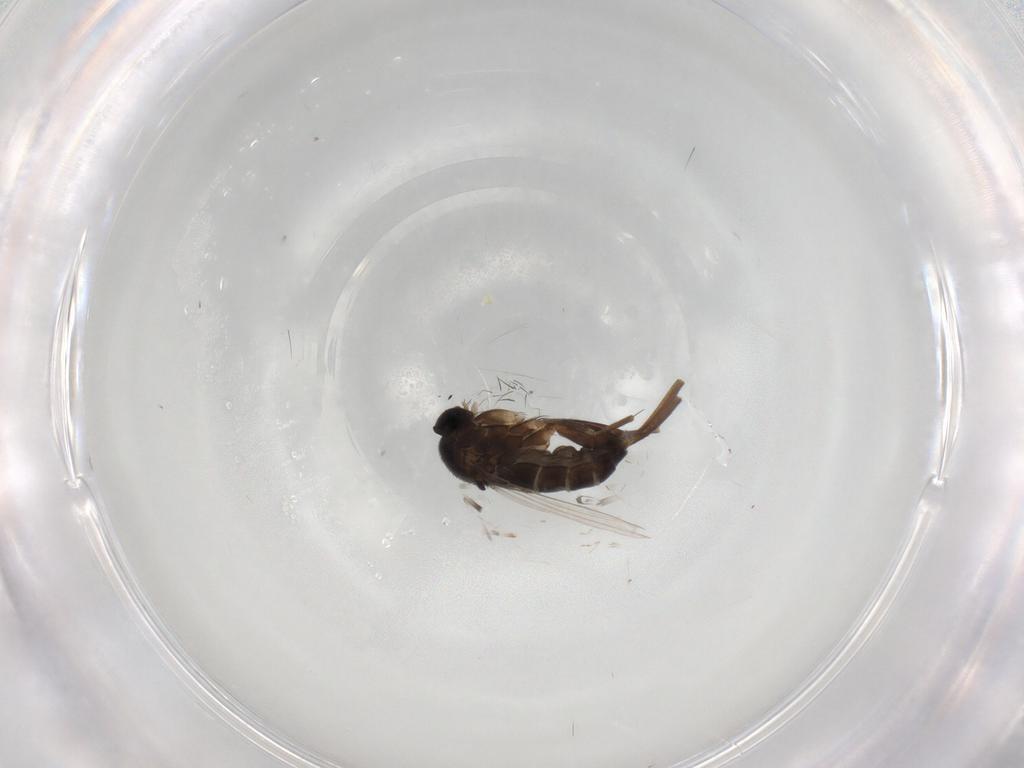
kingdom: Animalia
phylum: Arthropoda
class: Insecta
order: Diptera
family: Phoridae
